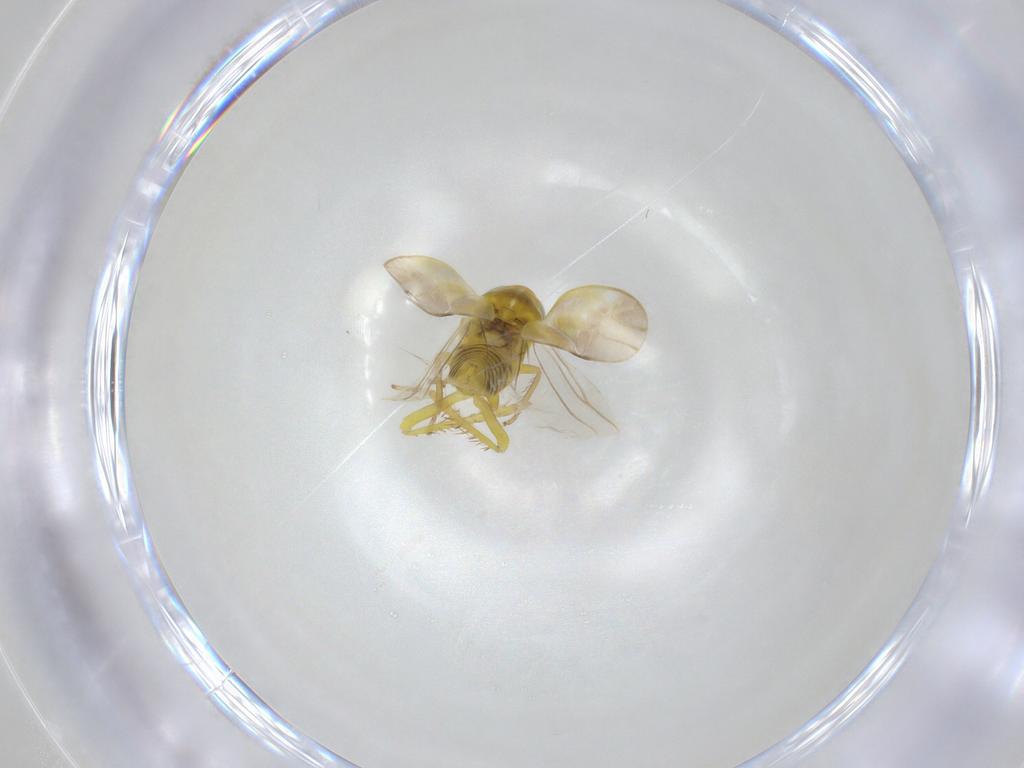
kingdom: Animalia
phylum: Arthropoda
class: Insecta
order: Hemiptera
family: Cicadellidae
